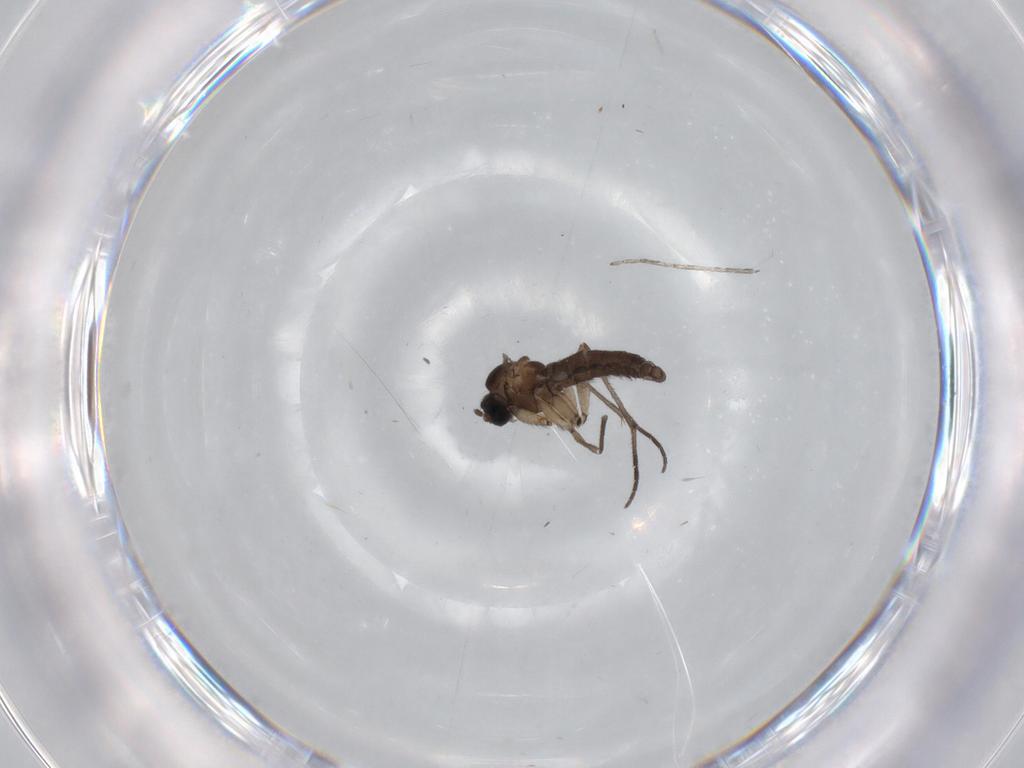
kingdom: Animalia
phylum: Arthropoda
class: Insecta
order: Diptera
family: Sciaridae
